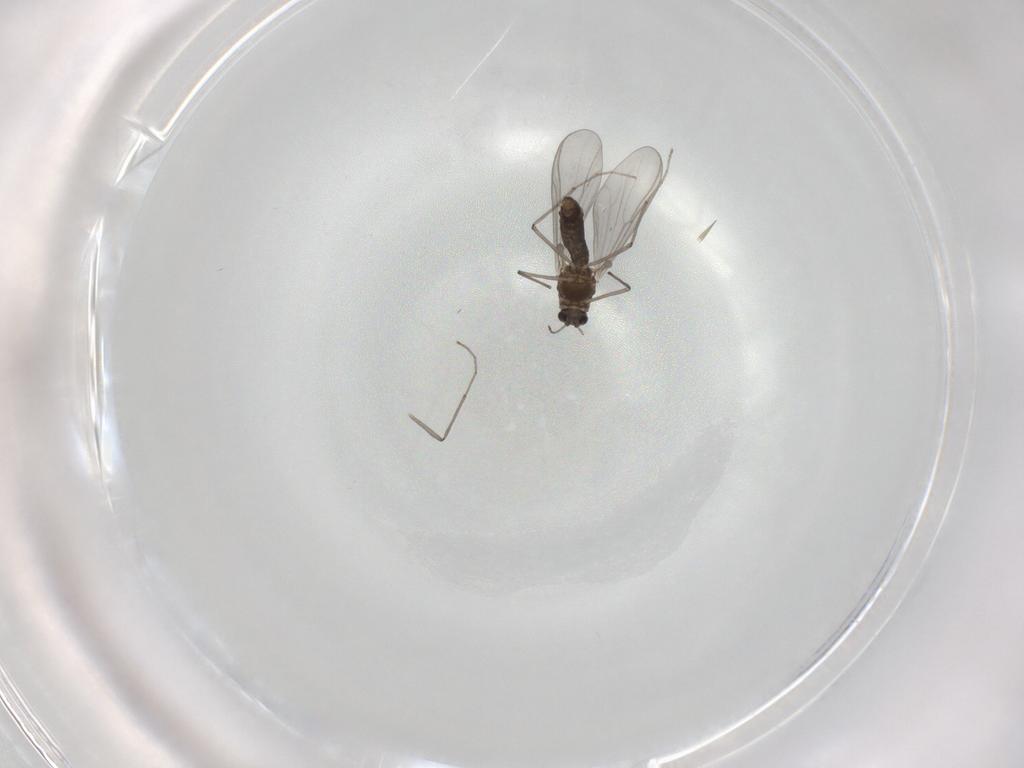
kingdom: Animalia
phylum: Arthropoda
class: Insecta
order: Diptera
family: Chironomidae
